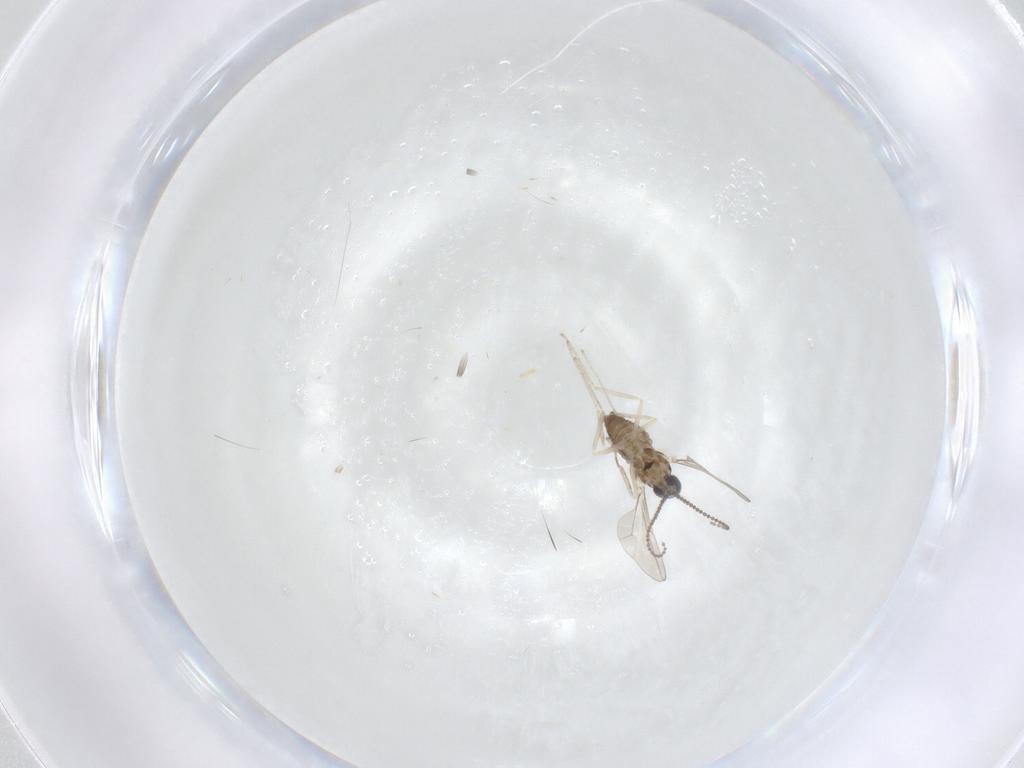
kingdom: Animalia
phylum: Arthropoda
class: Insecta
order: Diptera
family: Cecidomyiidae
